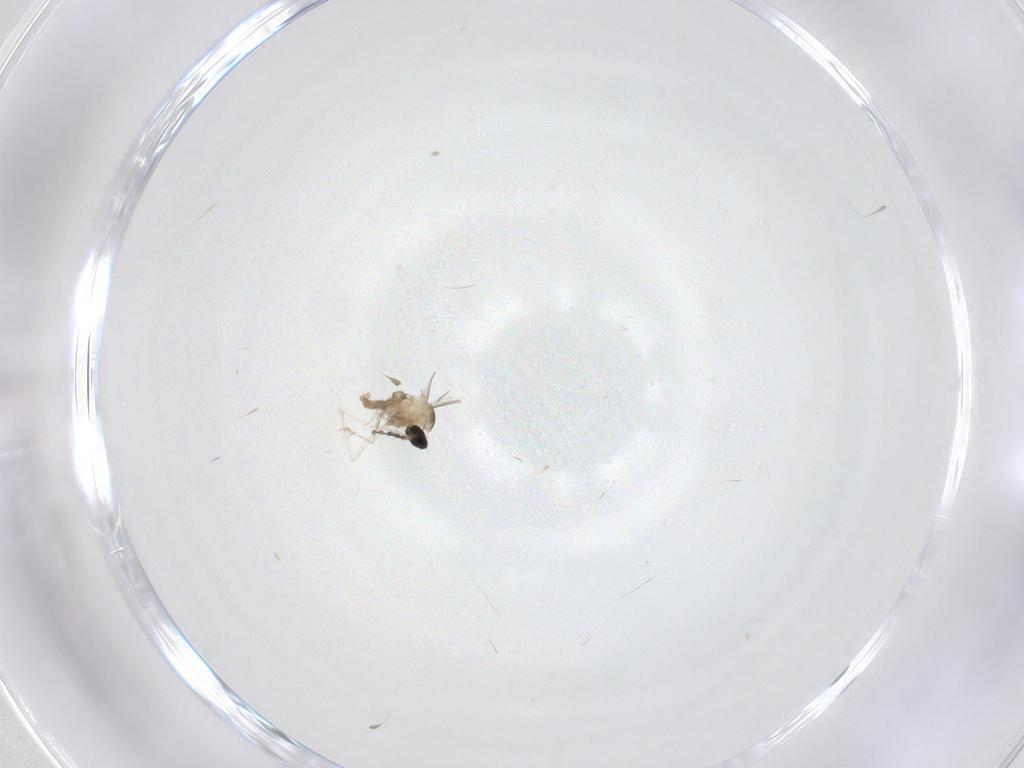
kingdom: Animalia
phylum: Arthropoda
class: Insecta
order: Diptera
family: Cecidomyiidae
